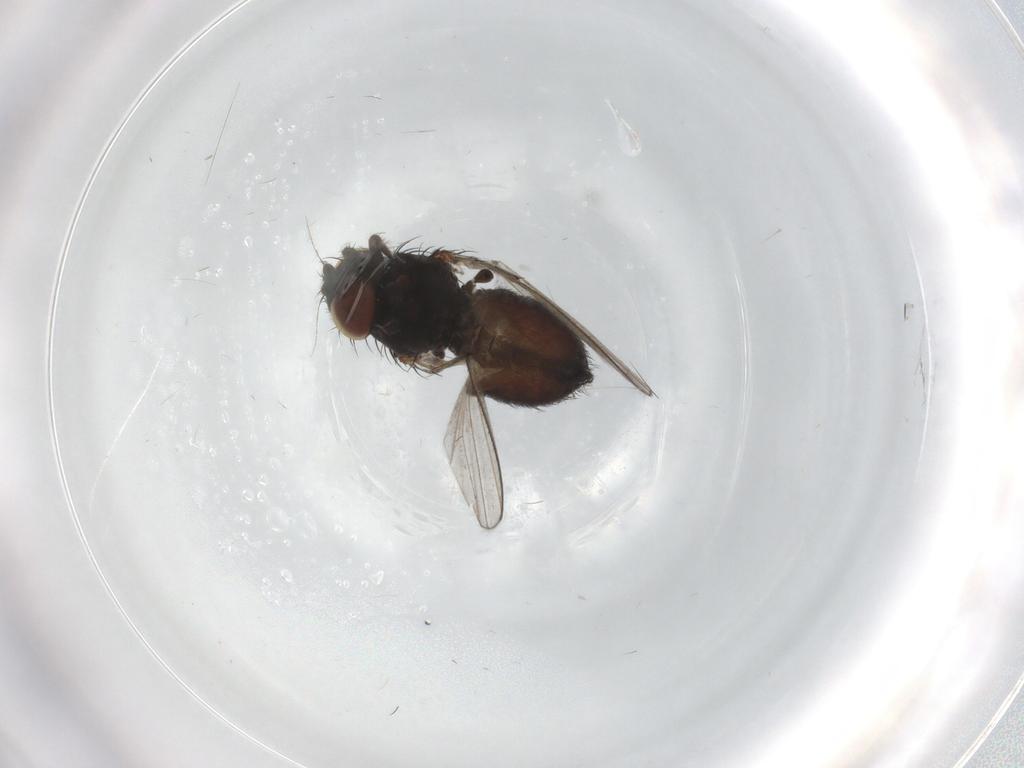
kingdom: Animalia
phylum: Arthropoda
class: Insecta
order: Diptera
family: Milichiidae
